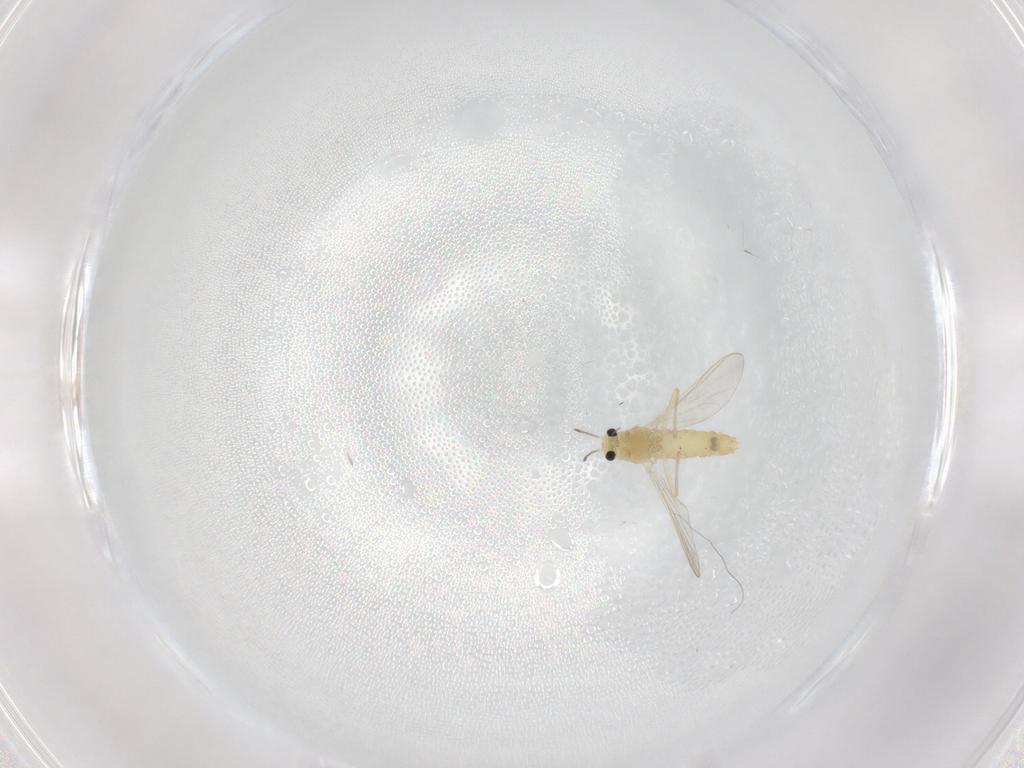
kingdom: Animalia
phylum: Arthropoda
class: Insecta
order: Diptera
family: Chironomidae
